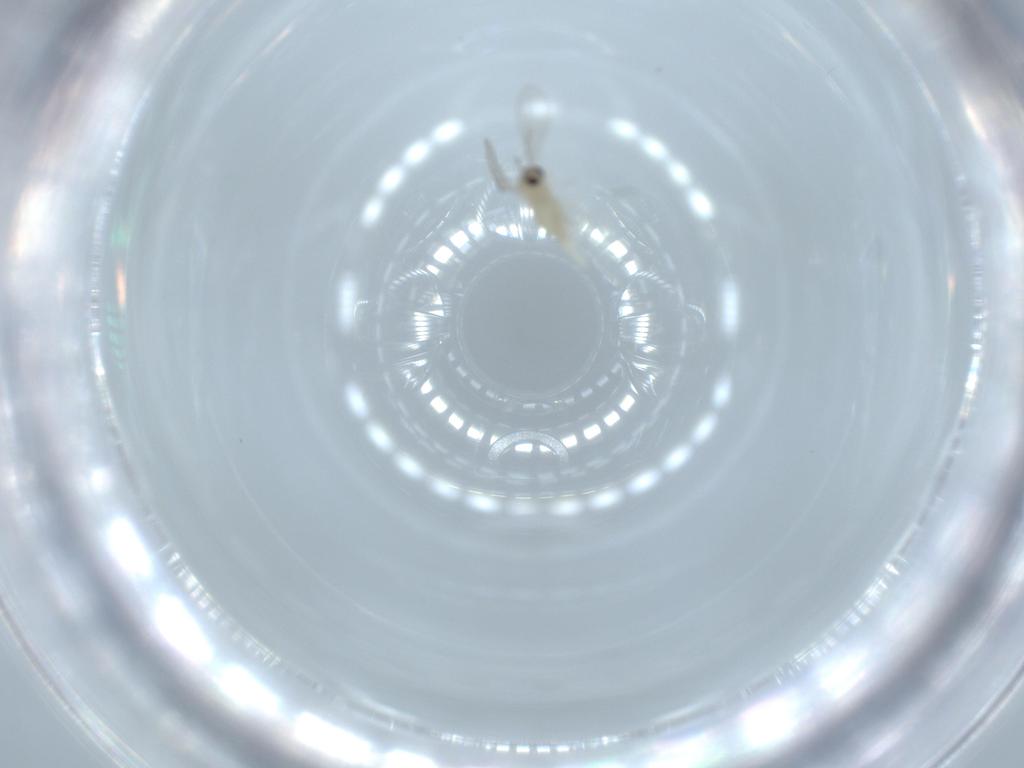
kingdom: Animalia
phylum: Arthropoda
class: Insecta
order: Diptera
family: Cecidomyiidae
